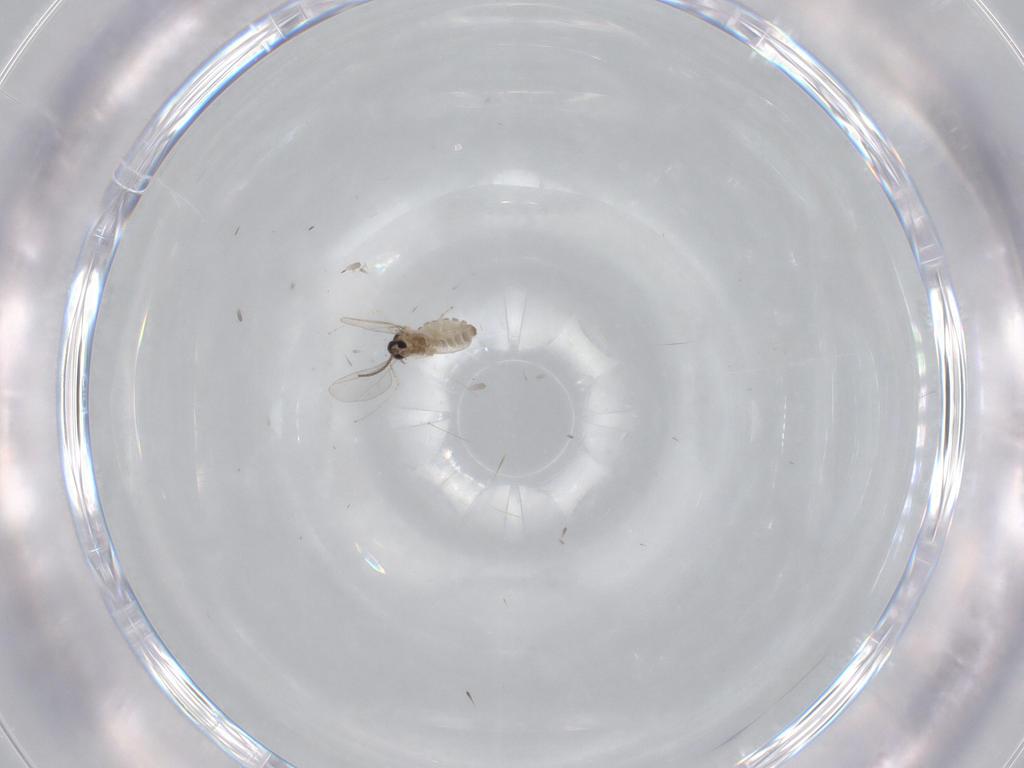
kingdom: Animalia
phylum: Arthropoda
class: Insecta
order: Diptera
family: Cecidomyiidae
